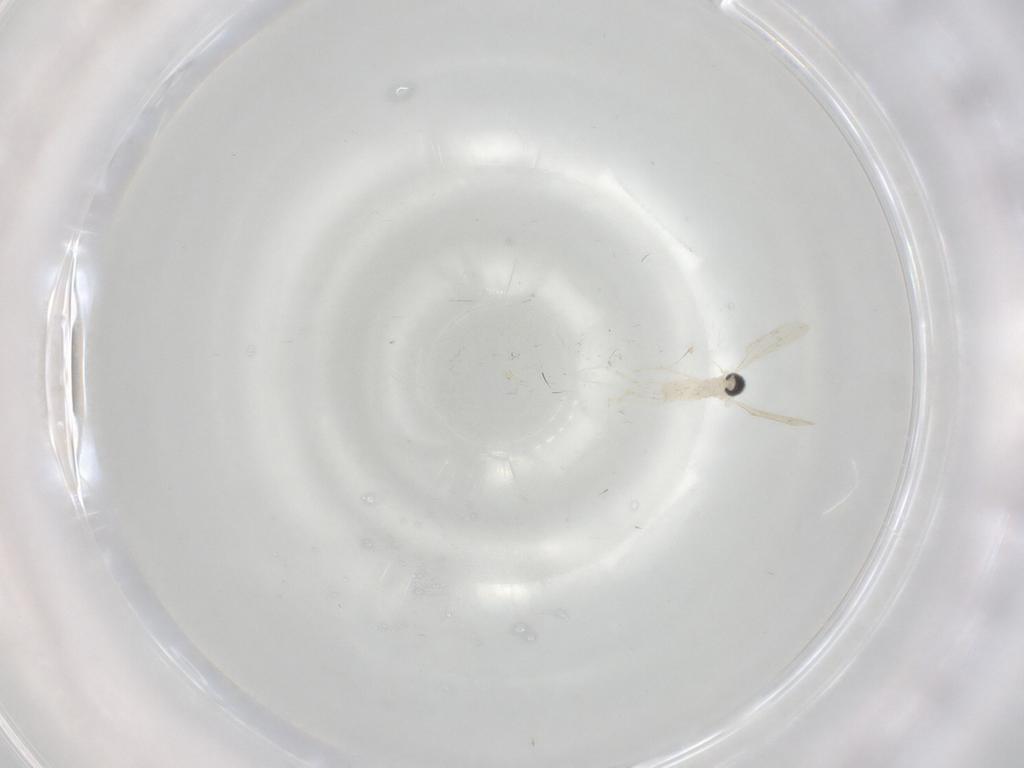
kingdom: Animalia
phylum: Arthropoda
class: Insecta
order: Diptera
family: Cecidomyiidae
